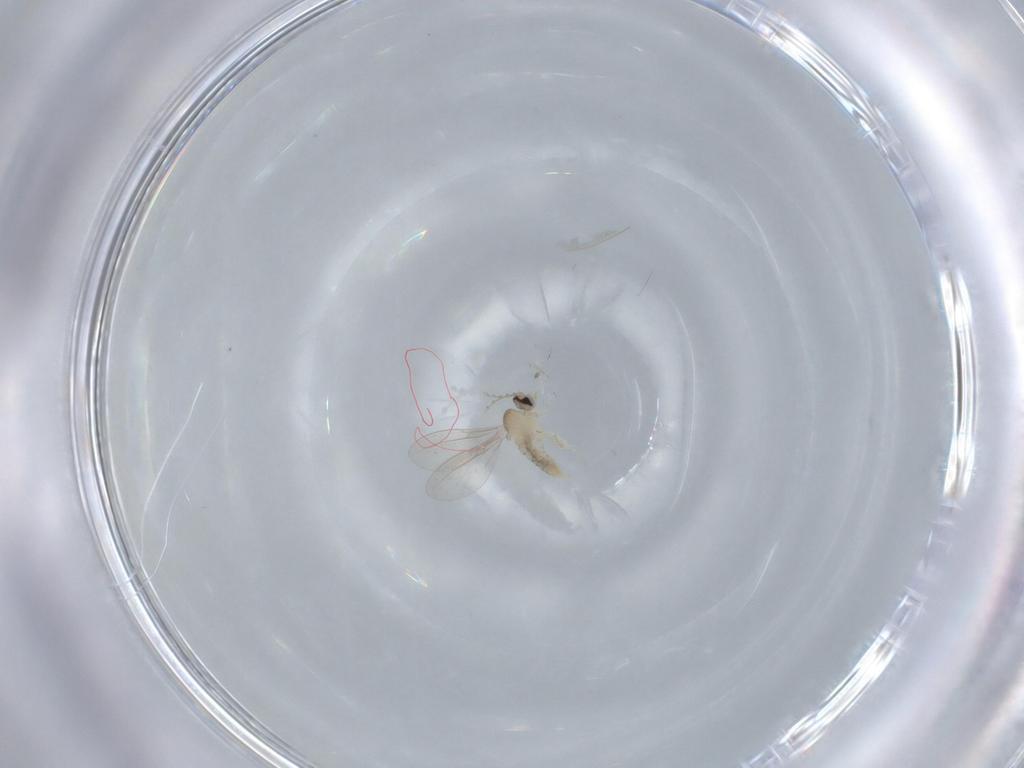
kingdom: Animalia
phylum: Arthropoda
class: Insecta
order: Diptera
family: Cecidomyiidae
